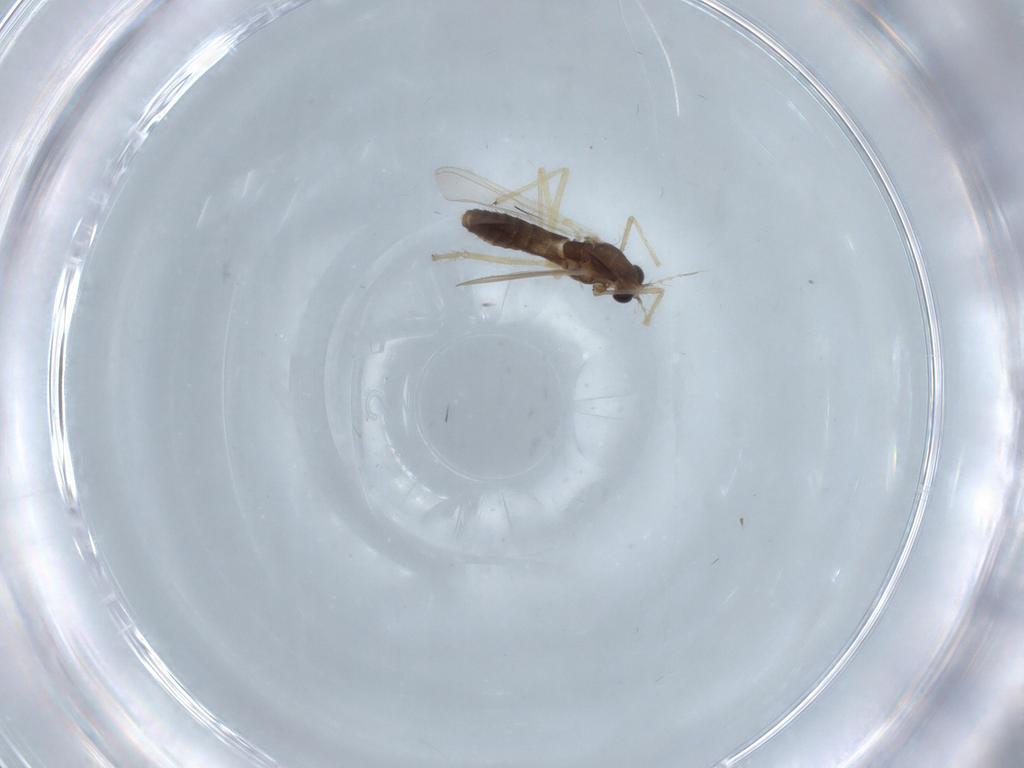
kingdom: Animalia
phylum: Arthropoda
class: Insecta
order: Diptera
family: Chironomidae
